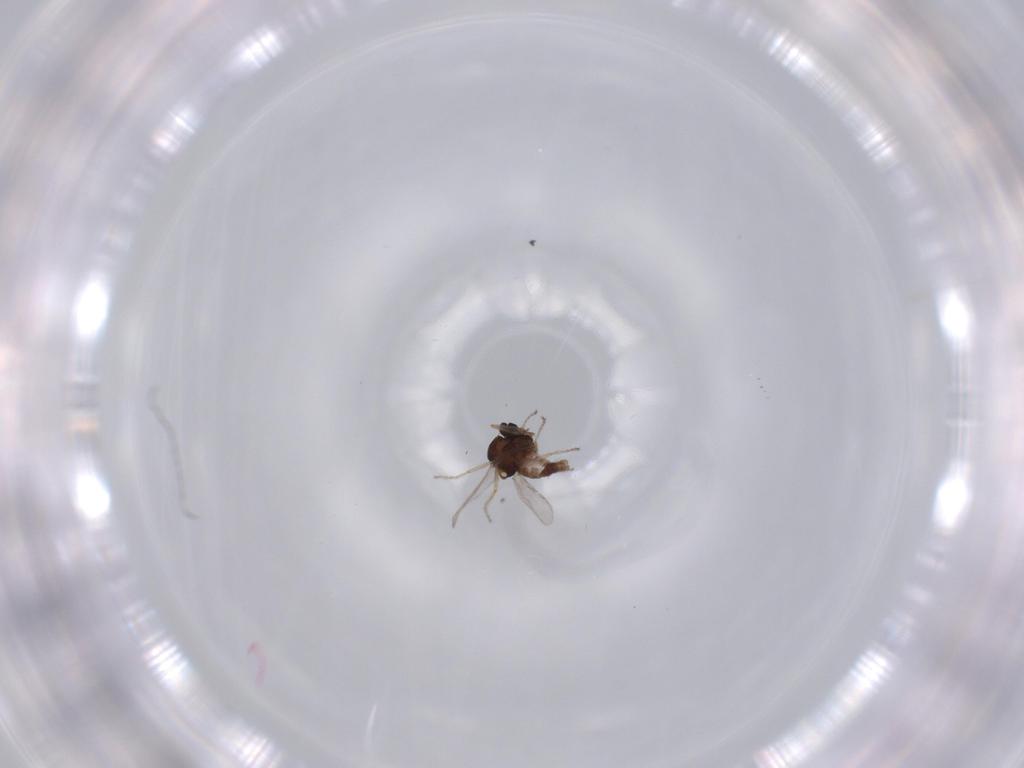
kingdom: Animalia
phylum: Arthropoda
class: Insecta
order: Diptera
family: Ceratopogonidae
